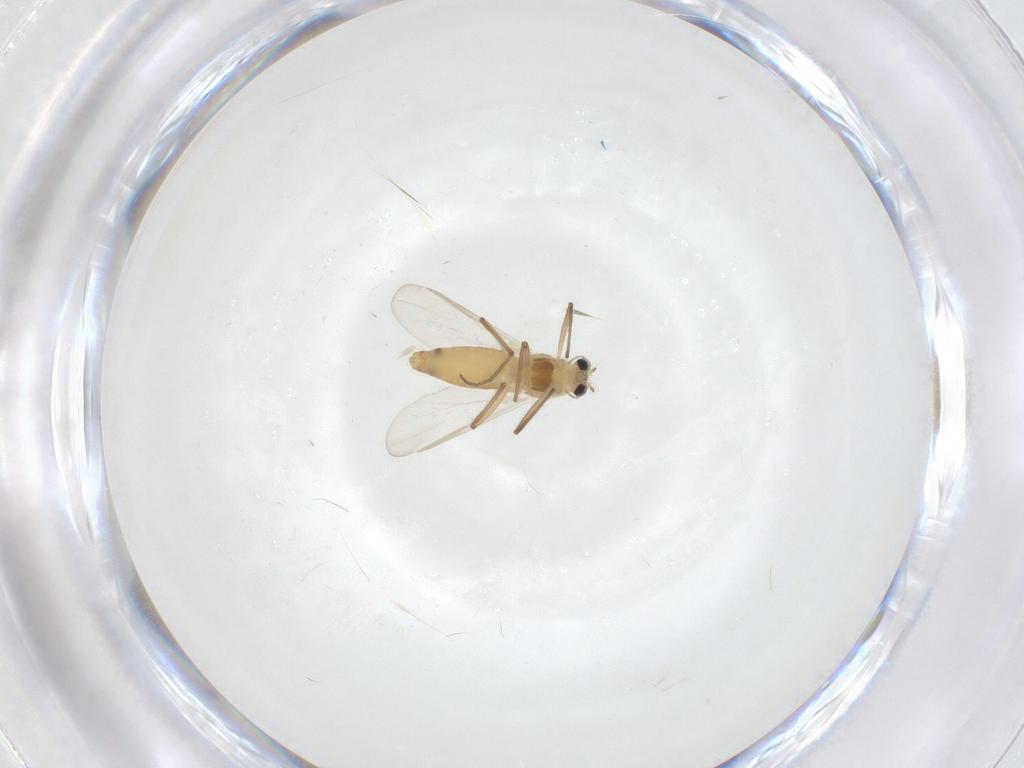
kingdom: Animalia
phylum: Arthropoda
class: Insecta
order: Diptera
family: Chironomidae
